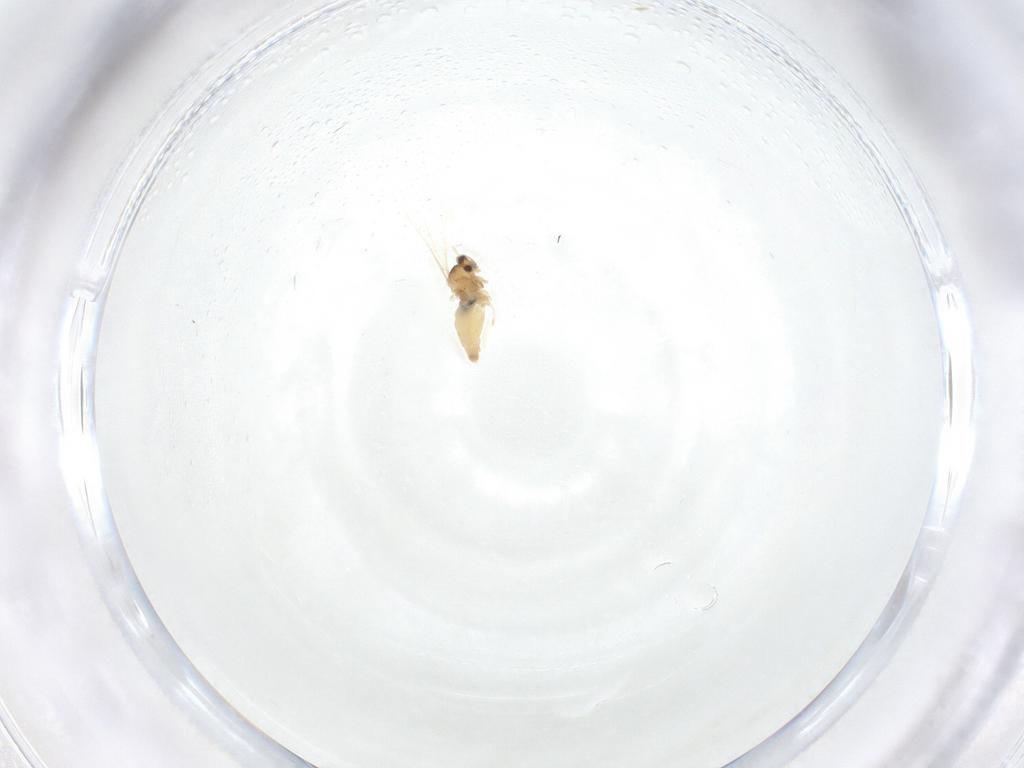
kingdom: Animalia
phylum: Arthropoda
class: Insecta
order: Diptera
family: Cecidomyiidae
